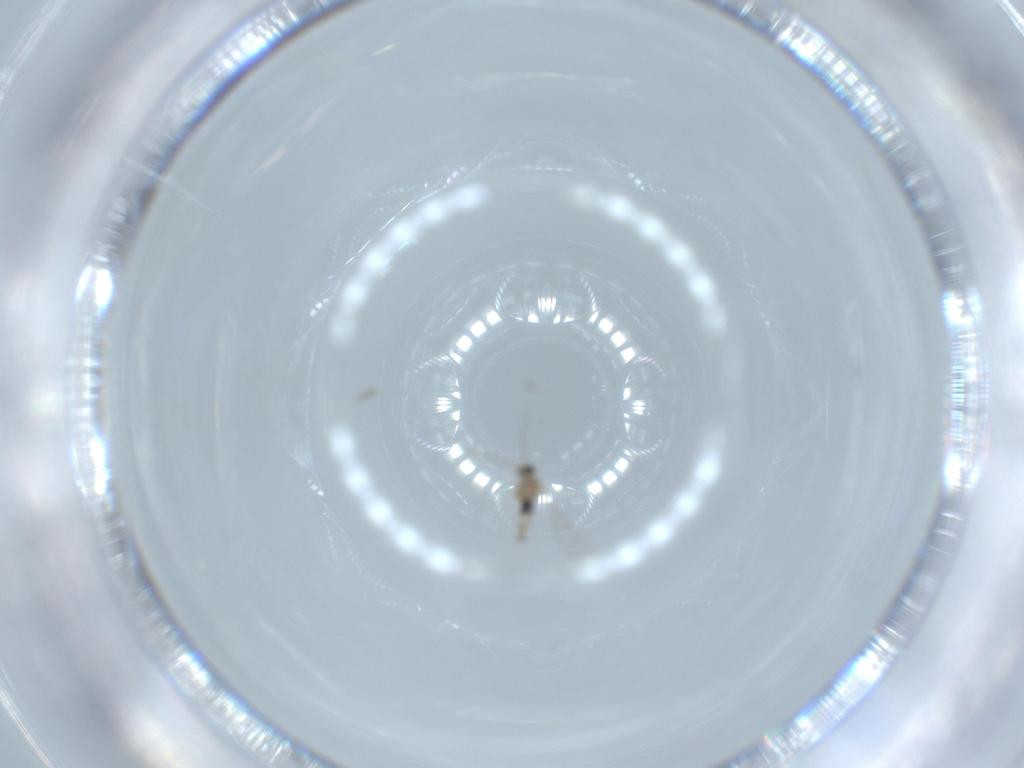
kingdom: Animalia
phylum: Arthropoda
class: Insecta
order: Diptera
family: Cecidomyiidae
